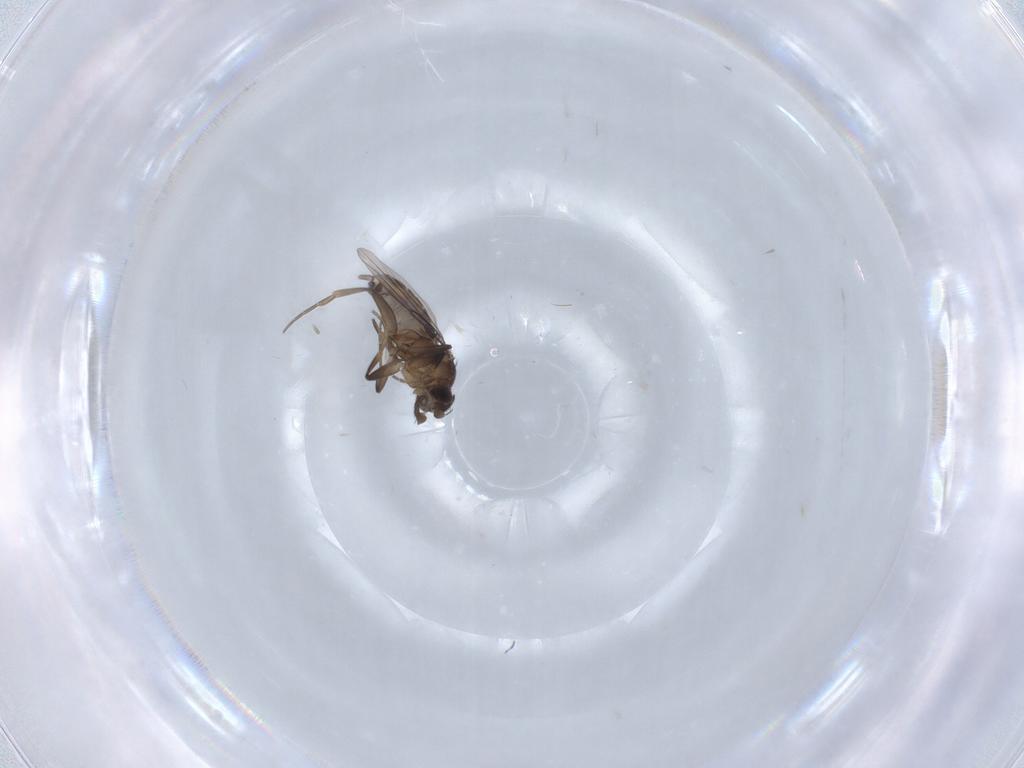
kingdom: Animalia
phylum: Arthropoda
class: Insecta
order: Diptera
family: Phoridae
